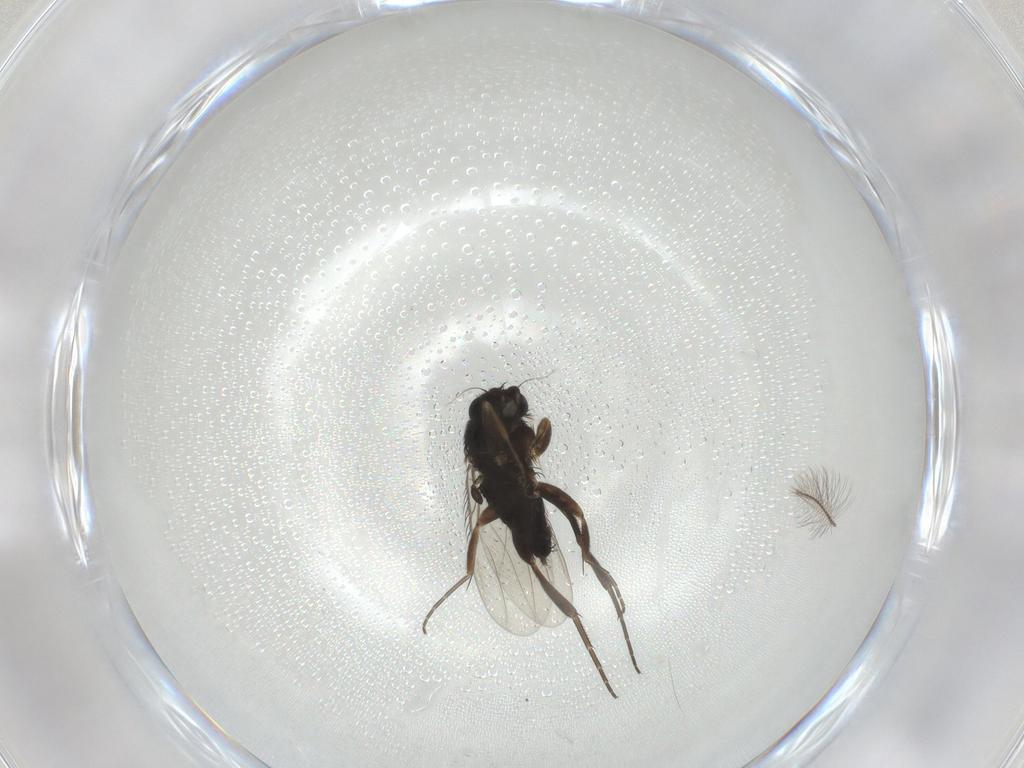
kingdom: Animalia
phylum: Arthropoda
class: Insecta
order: Diptera
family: Phoridae
